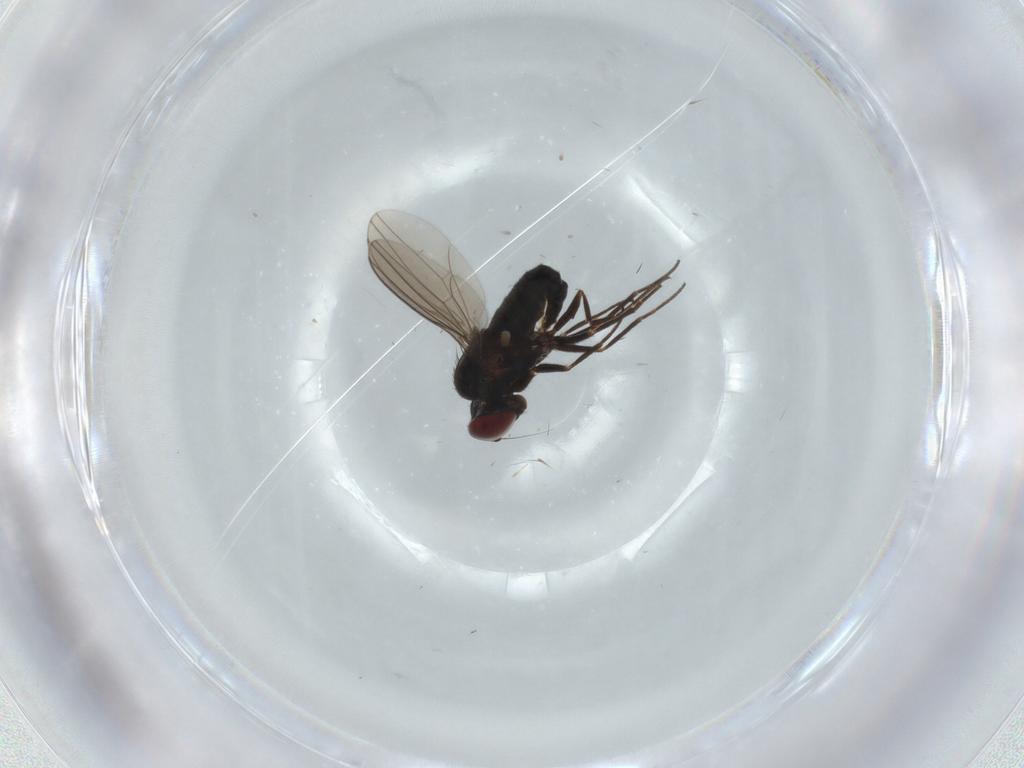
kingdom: Animalia
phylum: Arthropoda
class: Insecta
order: Diptera
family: Dolichopodidae
